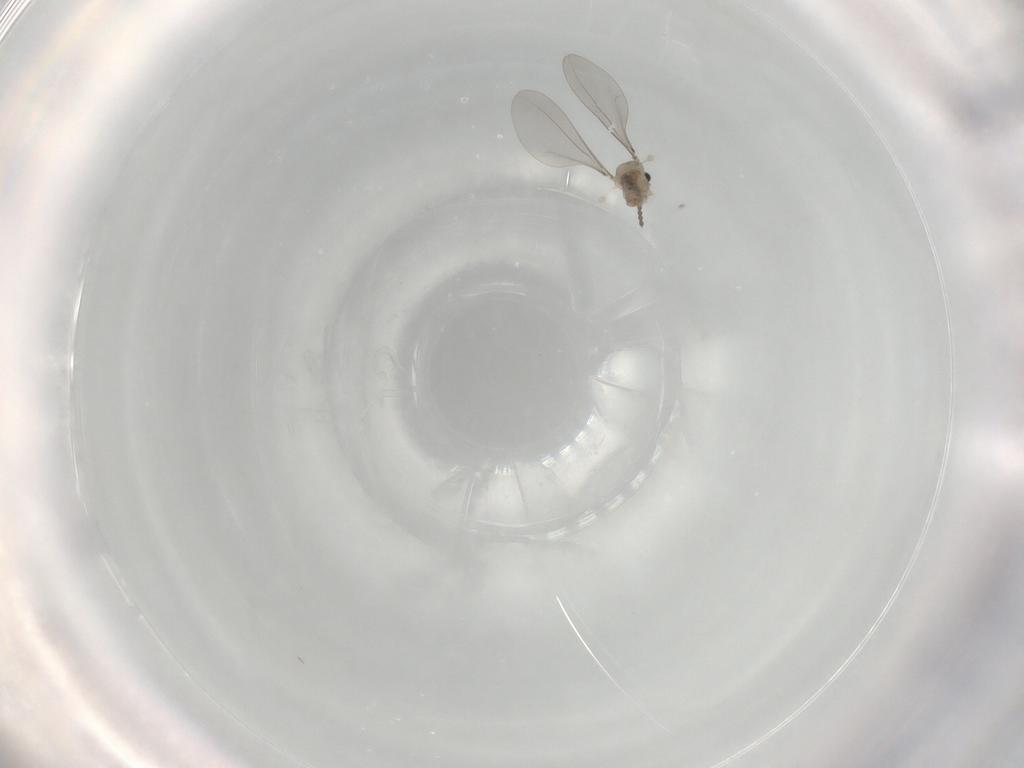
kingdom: Animalia
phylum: Arthropoda
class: Insecta
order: Diptera
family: Cecidomyiidae
